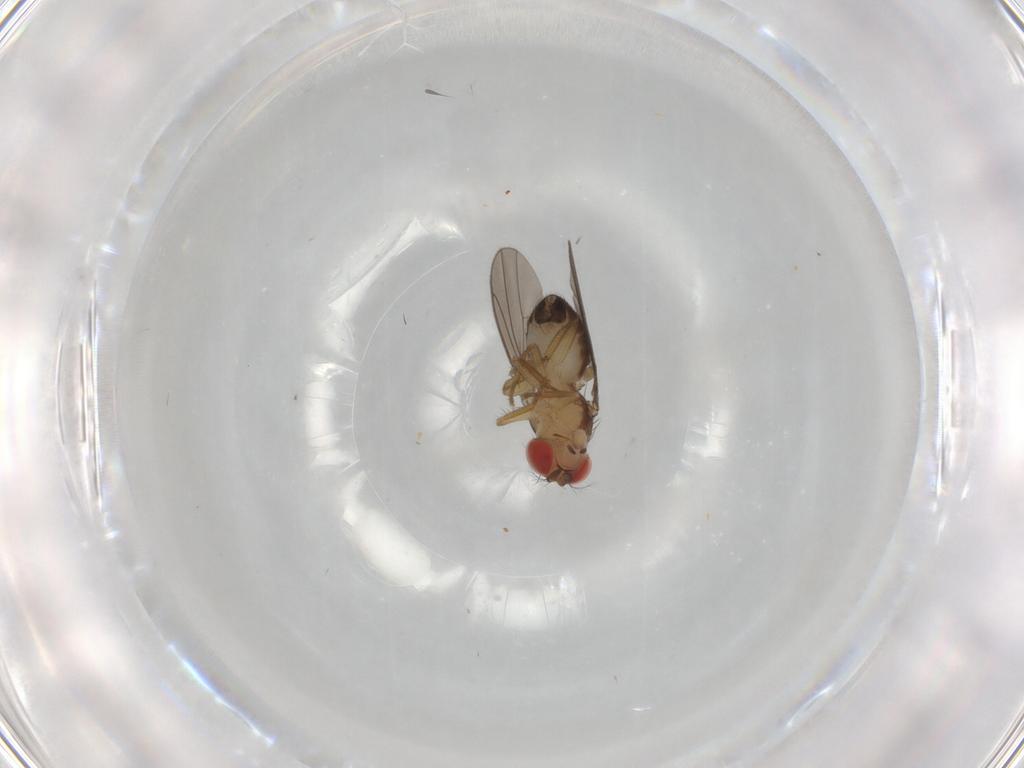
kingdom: Animalia
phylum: Arthropoda
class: Insecta
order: Diptera
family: Drosophilidae
